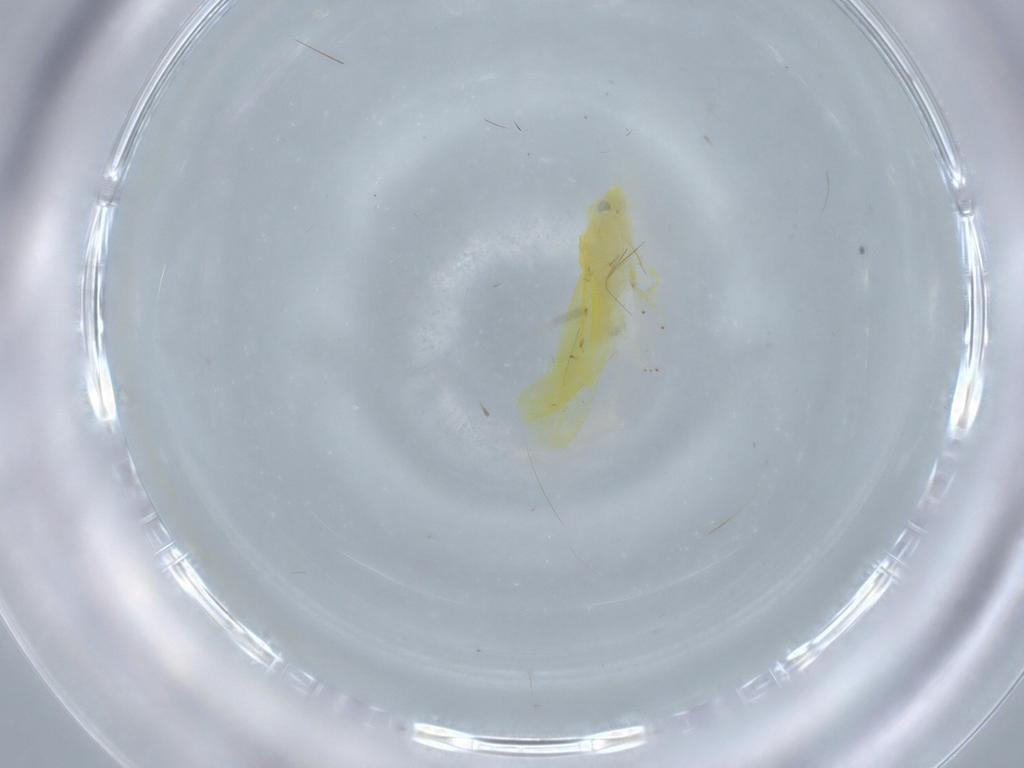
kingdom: Animalia
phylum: Arthropoda
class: Insecta
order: Hemiptera
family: Cicadellidae
